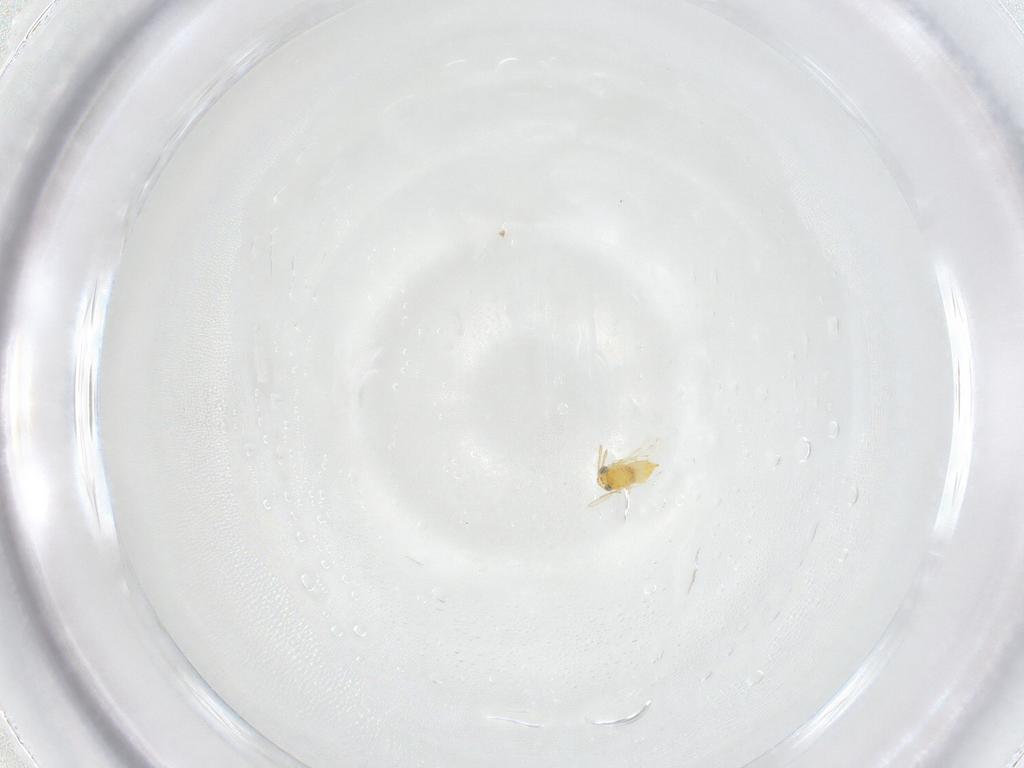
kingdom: Animalia
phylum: Arthropoda
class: Insecta
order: Hymenoptera
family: Aphelinidae
